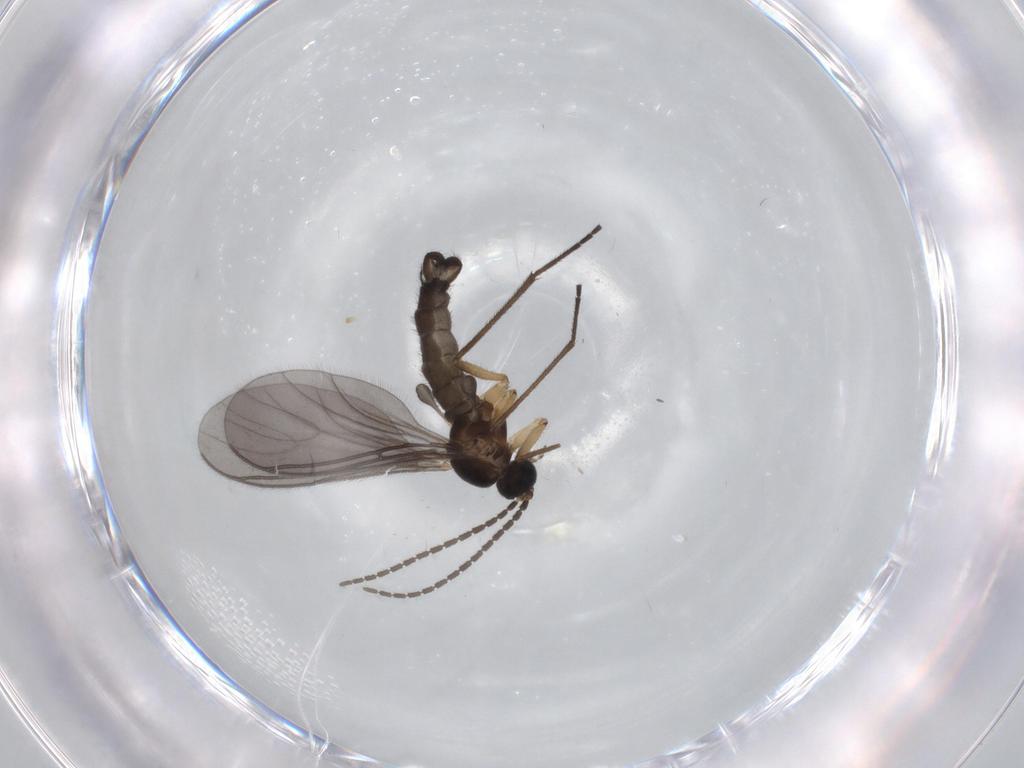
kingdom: Animalia
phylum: Arthropoda
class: Insecta
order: Diptera
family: Sciaridae
